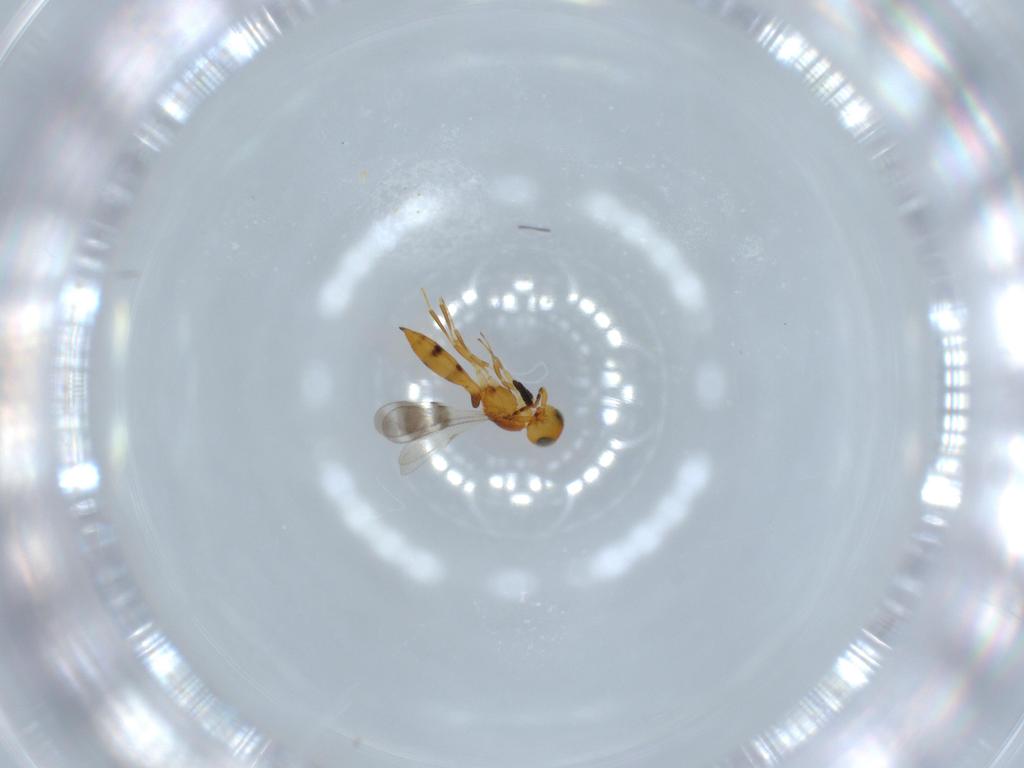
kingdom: Animalia
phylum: Arthropoda
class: Insecta
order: Hymenoptera
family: Scelionidae
